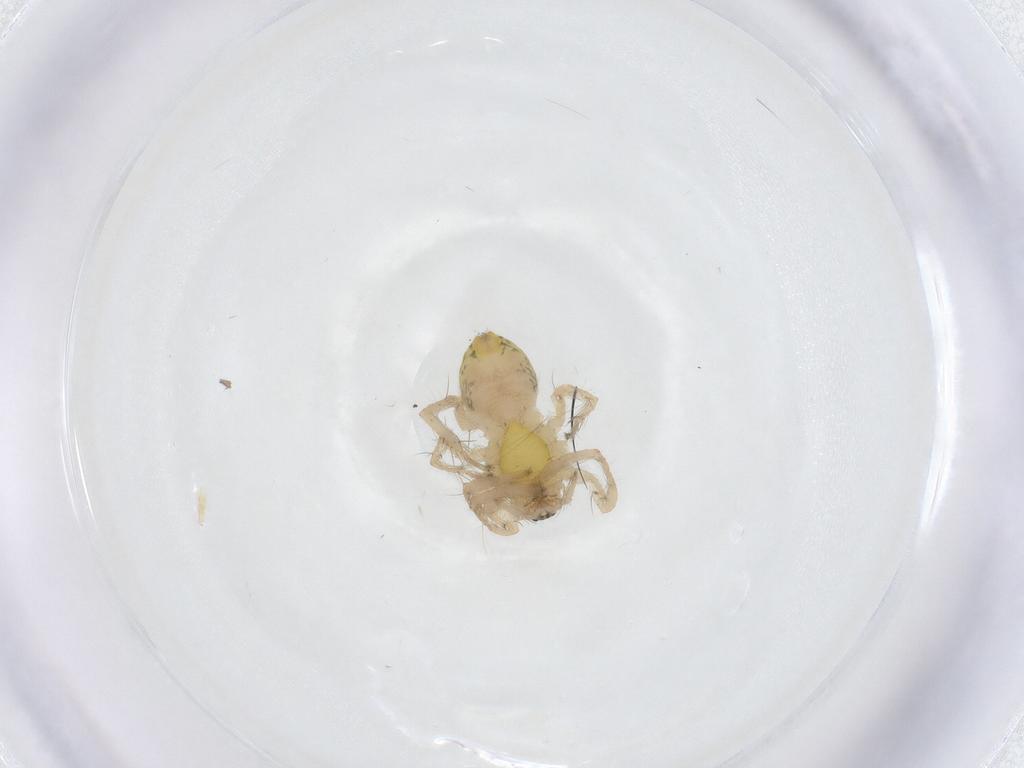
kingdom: Animalia
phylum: Arthropoda
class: Arachnida
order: Araneae
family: Anyphaenidae
